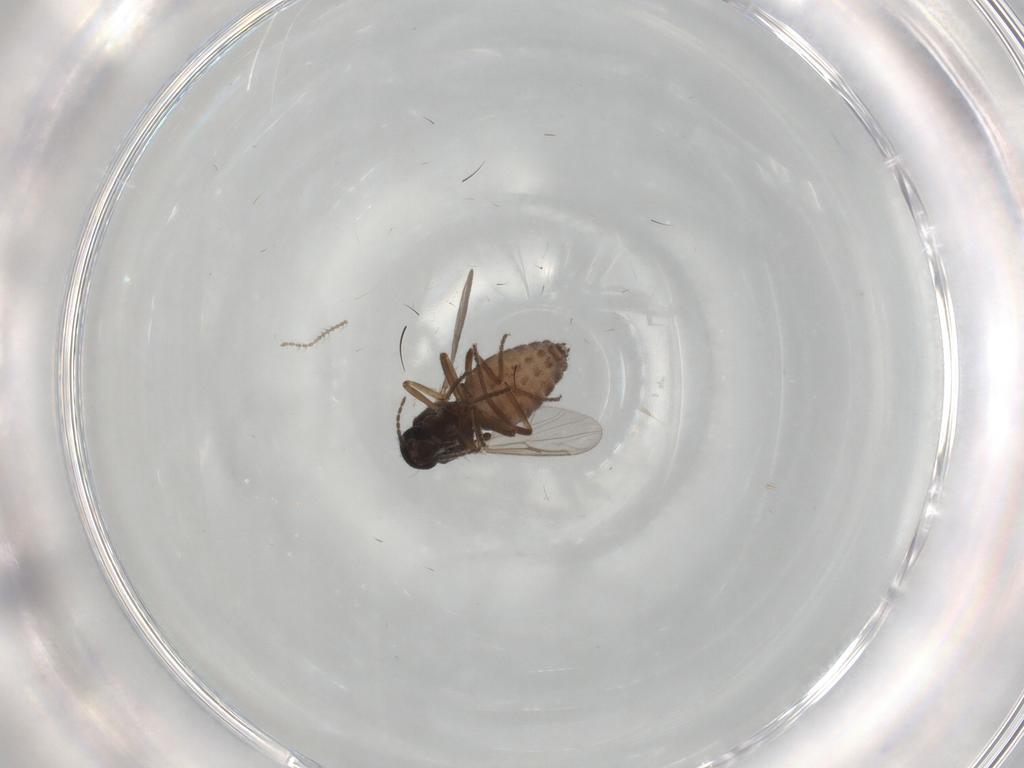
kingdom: Animalia
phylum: Arthropoda
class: Insecta
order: Diptera
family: Ceratopogonidae
